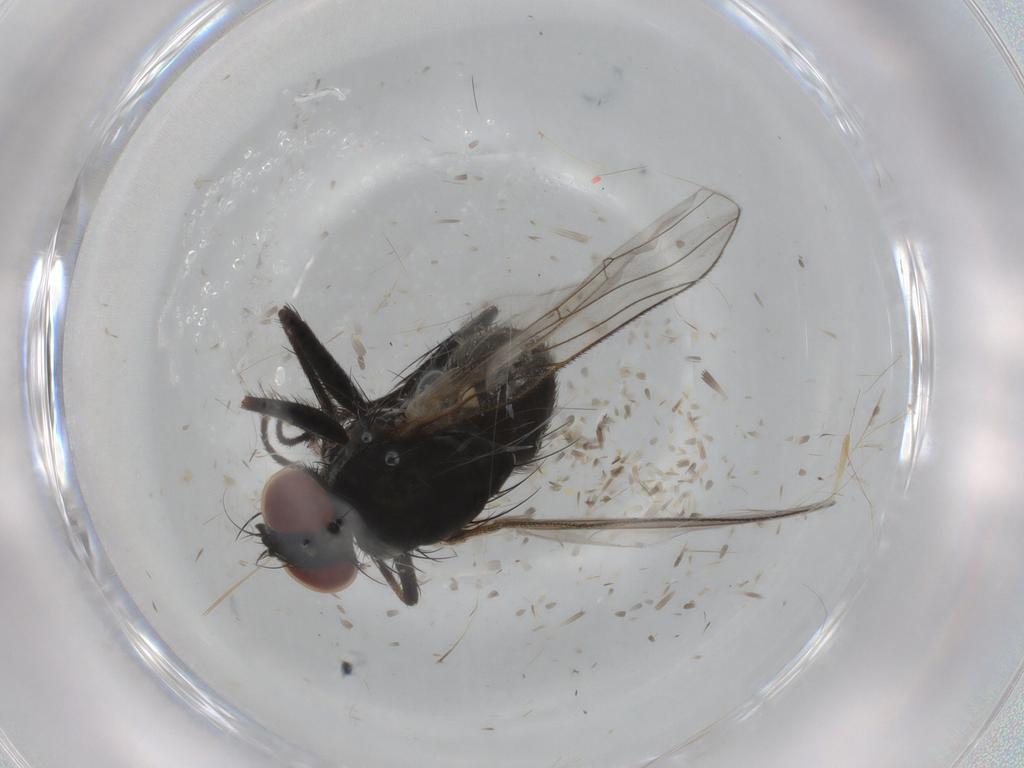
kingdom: Animalia
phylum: Arthropoda
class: Insecta
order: Diptera
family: Muscidae
